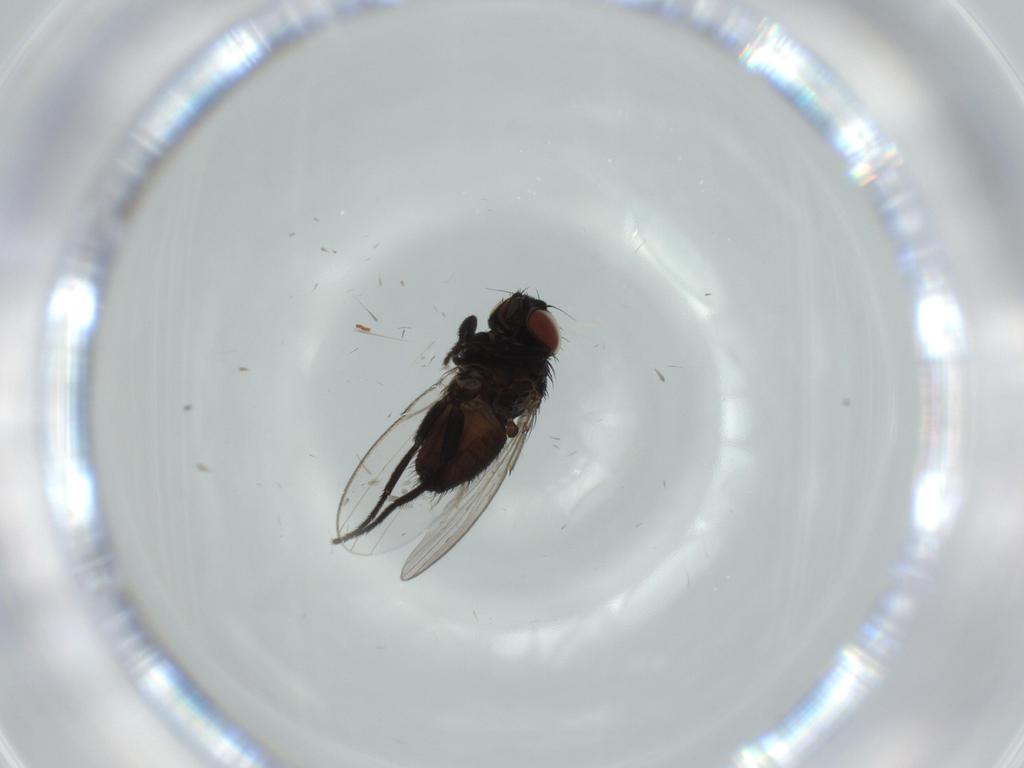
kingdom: Animalia
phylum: Arthropoda
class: Insecta
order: Diptera
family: Milichiidae
